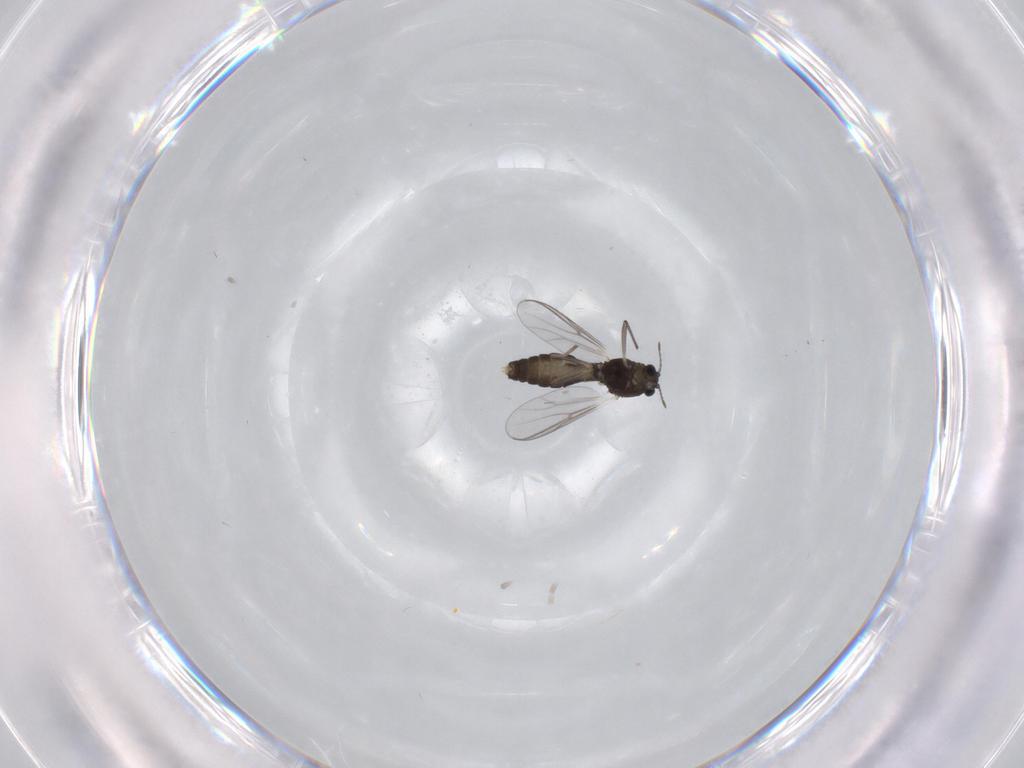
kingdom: Animalia
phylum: Arthropoda
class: Insecta
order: Diptera
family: Chironomidae
